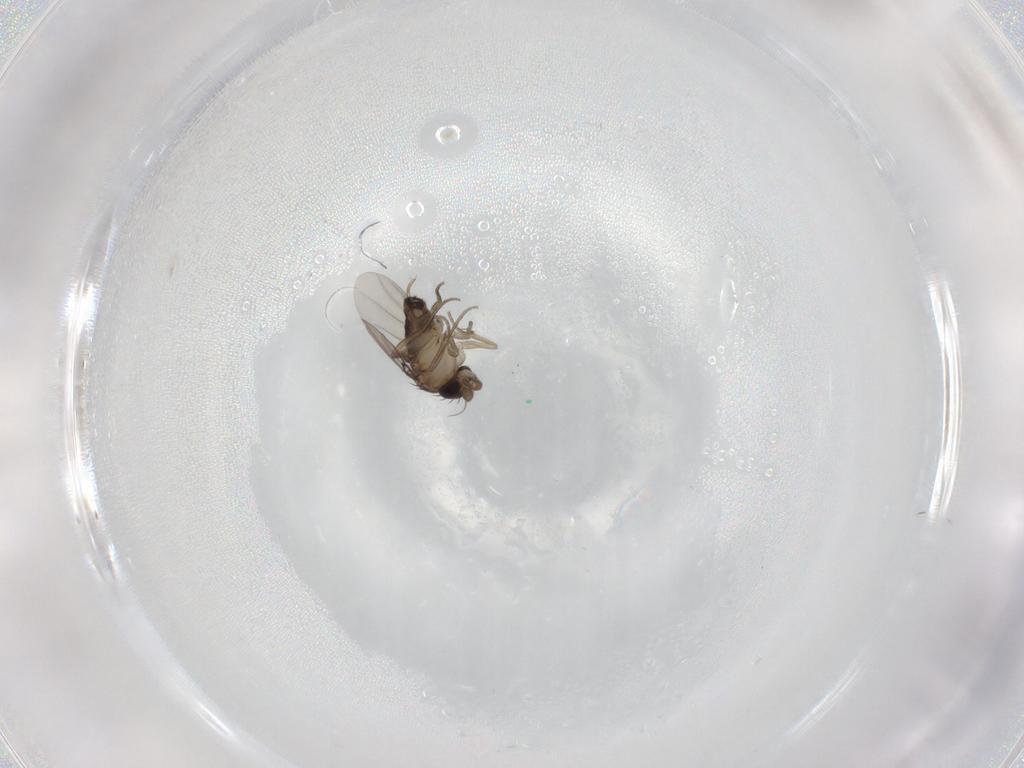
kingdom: Animalia
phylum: Arthropoda
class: Insecta
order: Diptera
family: Phoridae
